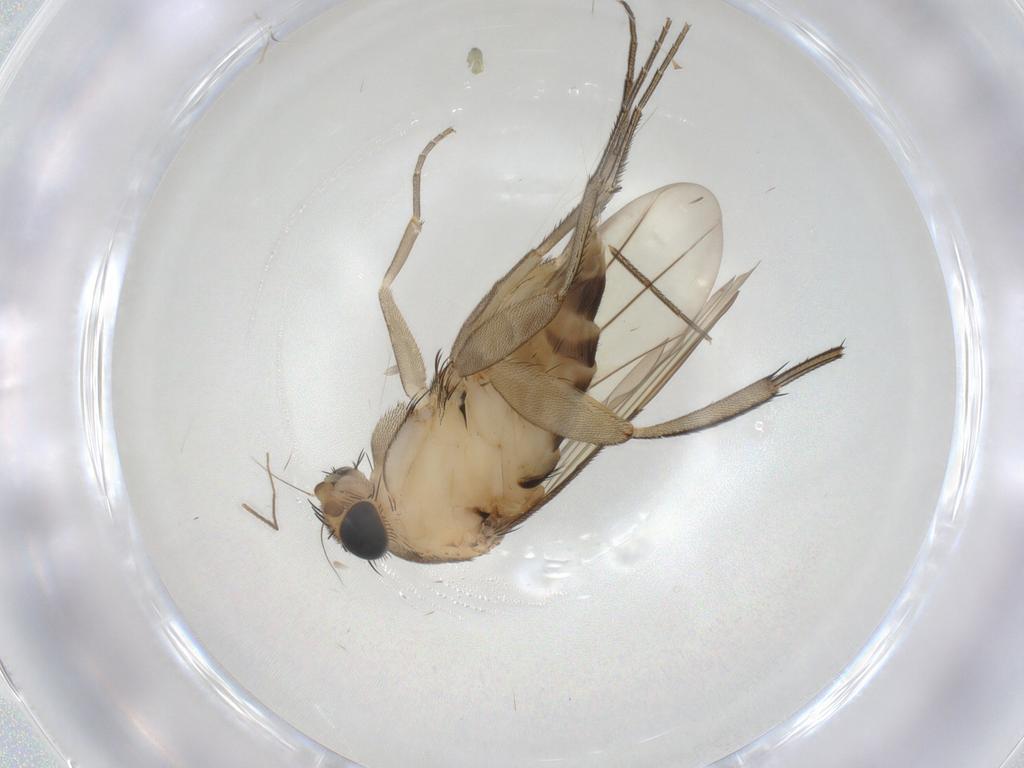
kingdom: Animalia
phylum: Arthropoda
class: Insecta
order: Diptera
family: Phoridae
